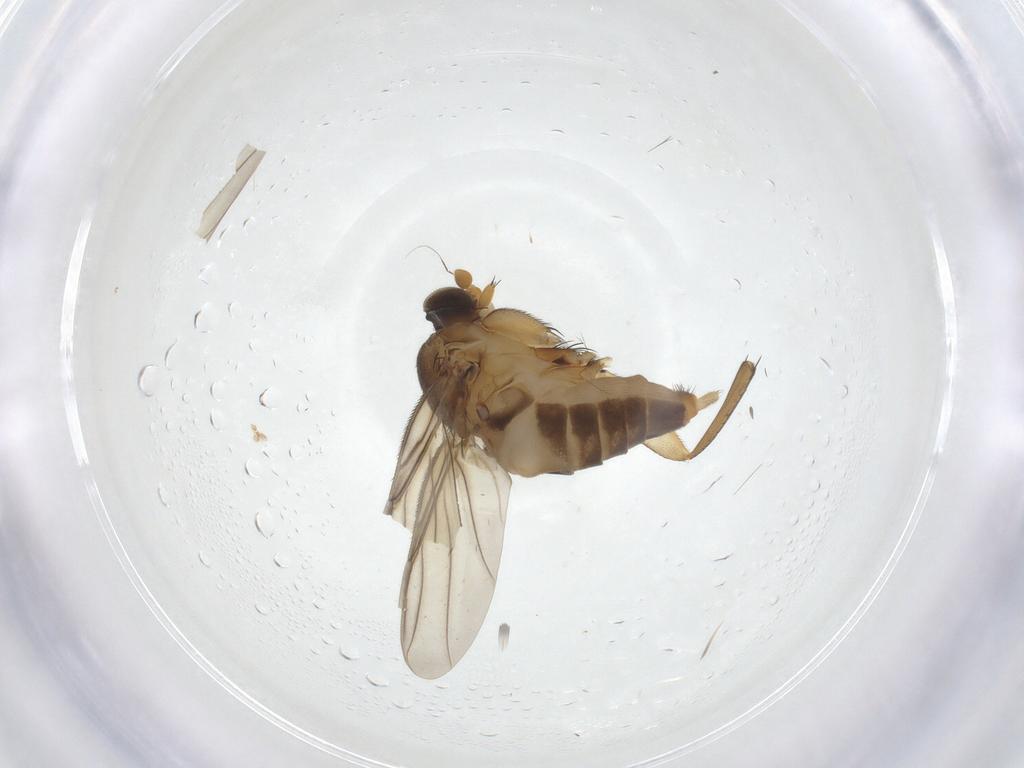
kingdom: Animalia
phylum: Arthropoda
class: Insecta
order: Diptera
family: Phoridae
